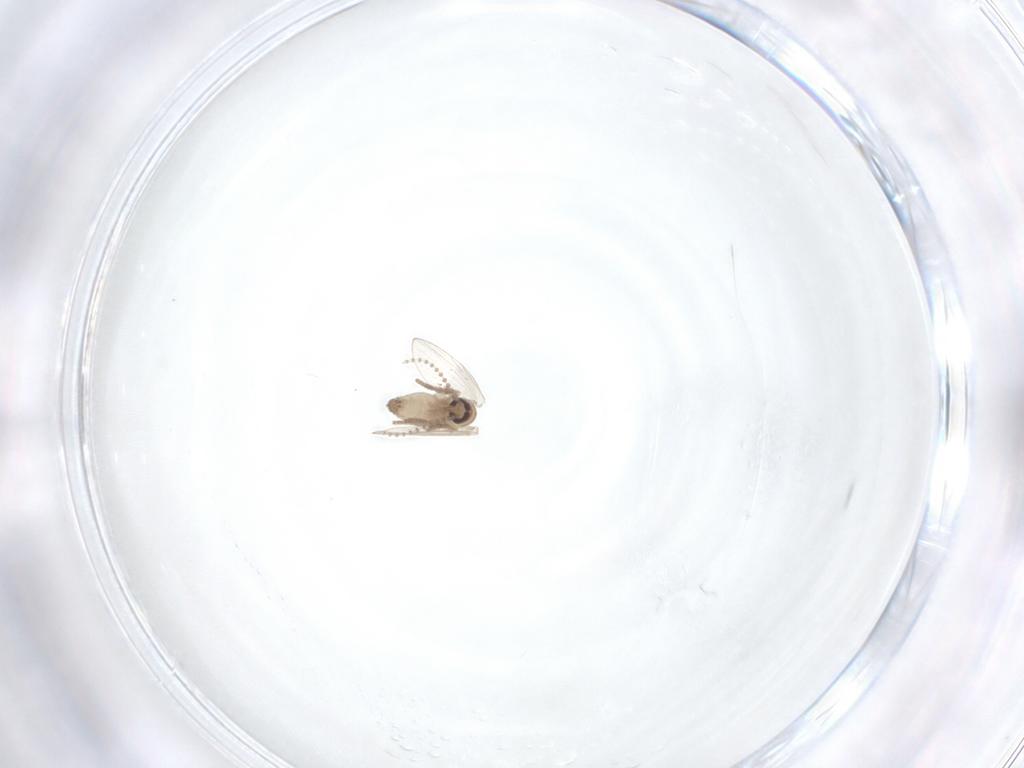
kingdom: Animalia
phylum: Arthropoda
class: Insecta
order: Diptera
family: Psychodidae
